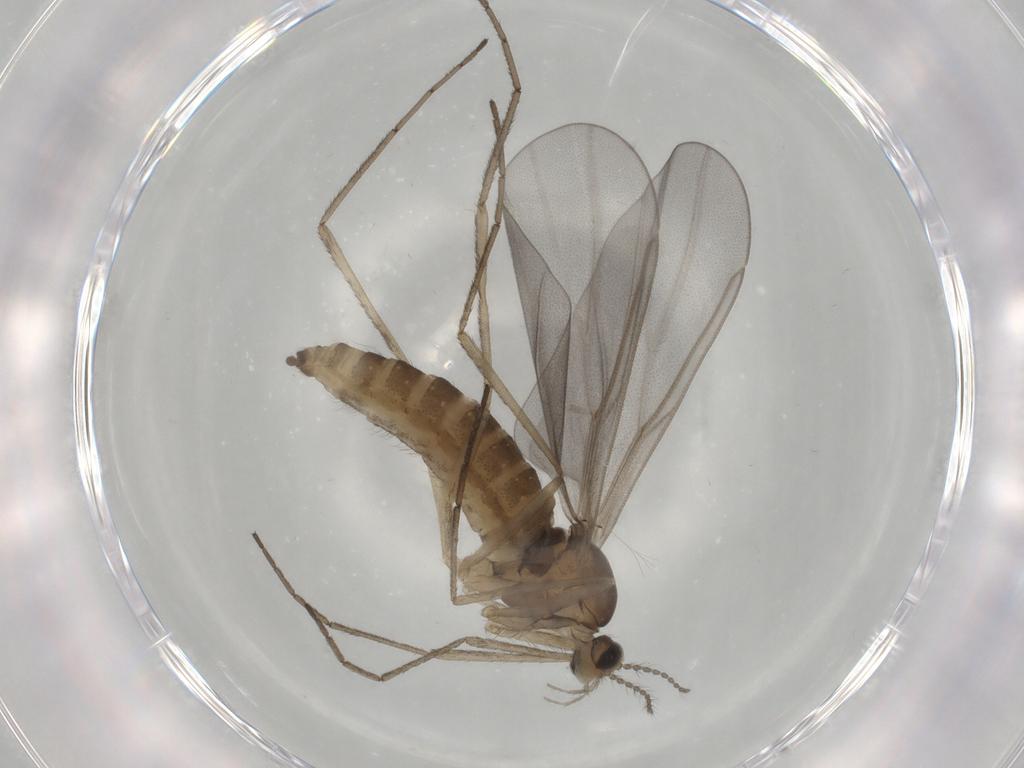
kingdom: Animalia
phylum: Arthropoda
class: Insecta
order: Diptera
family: Cecidomyiidae
